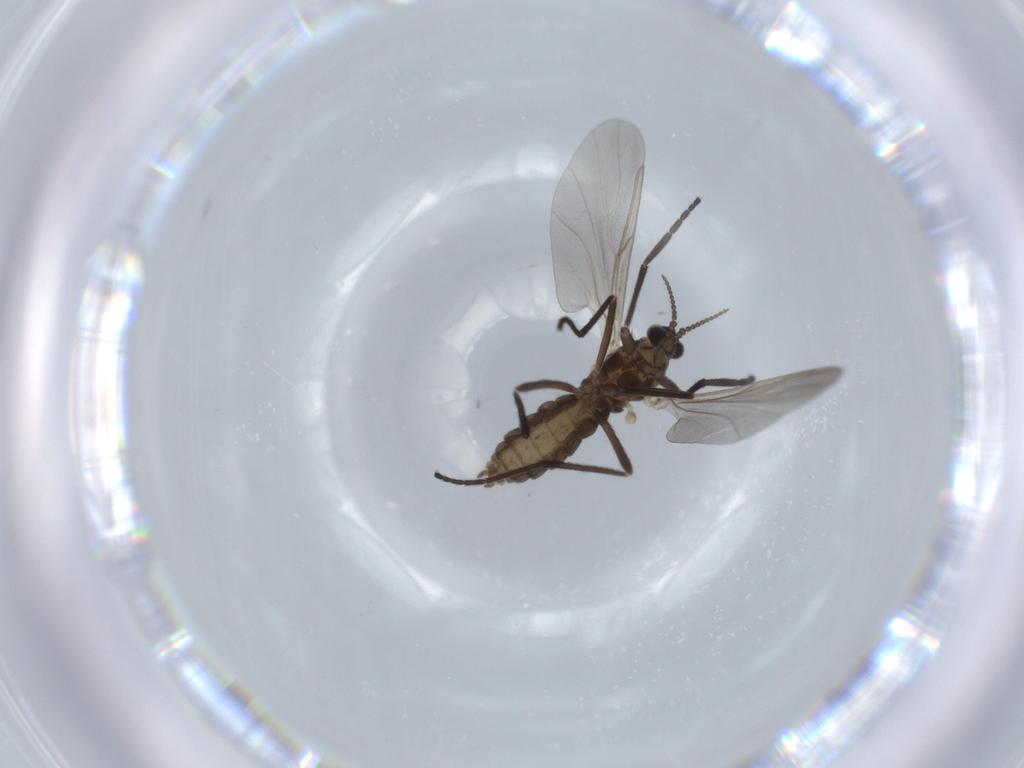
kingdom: Animalia
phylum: Arthropoda
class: Insecta
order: Diptera
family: Cecidomyiidae
